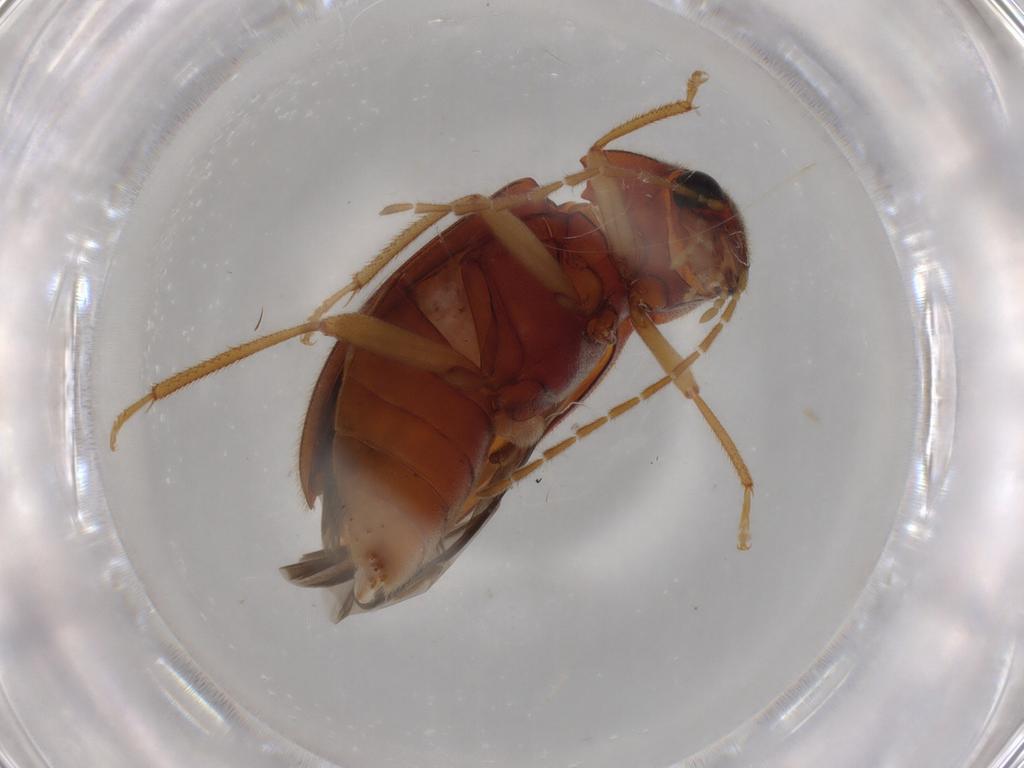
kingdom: Animalia
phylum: Arthropoda
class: Insecta
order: Coleoptera
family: Ptilodactylidae
